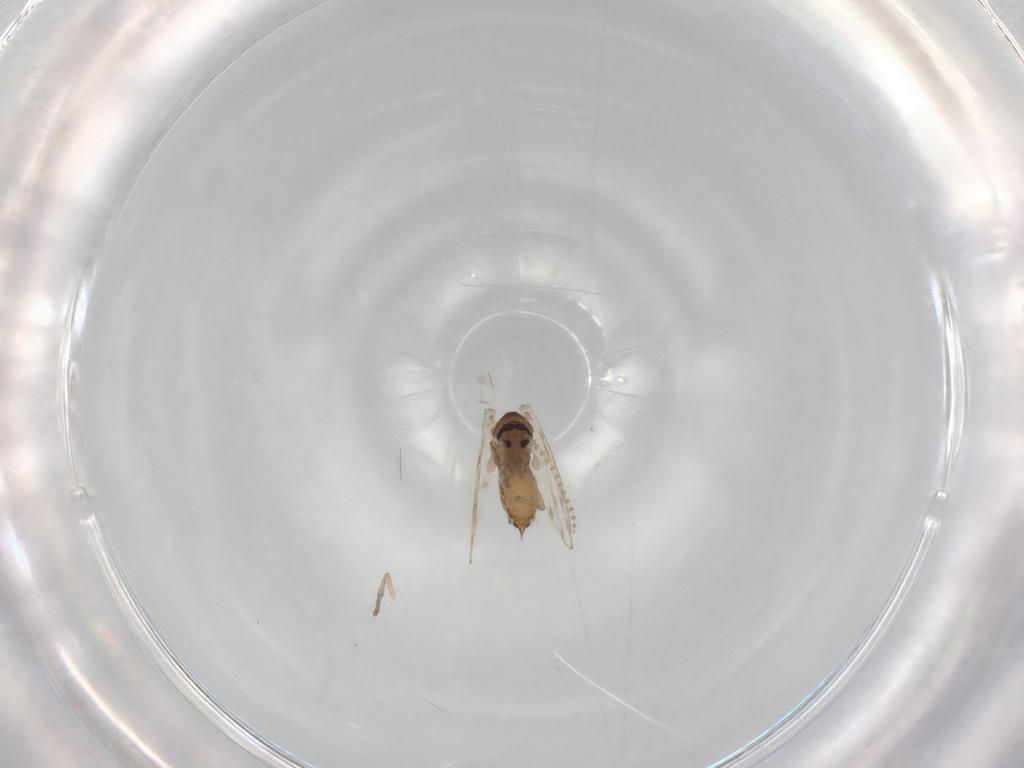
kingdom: Animalia
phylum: Arthropoda
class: Insecta
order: Diptera
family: Psychodidae
